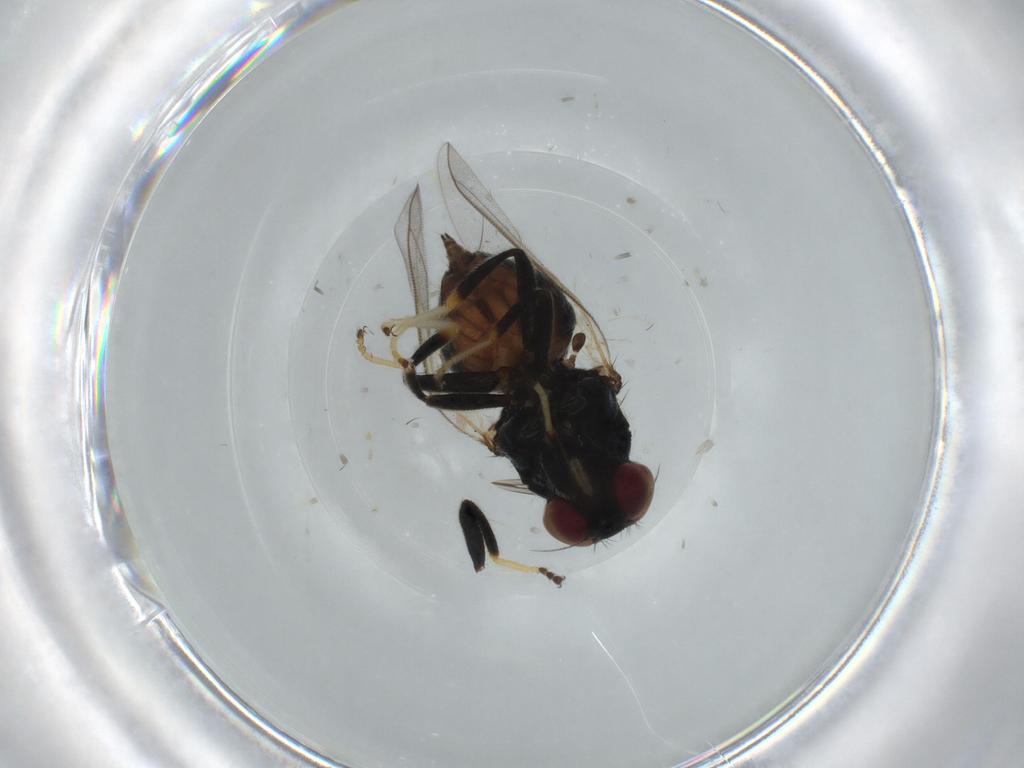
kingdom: Animalia
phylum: Arthropoda
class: Insecta
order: Diptera
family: Chloropidae
